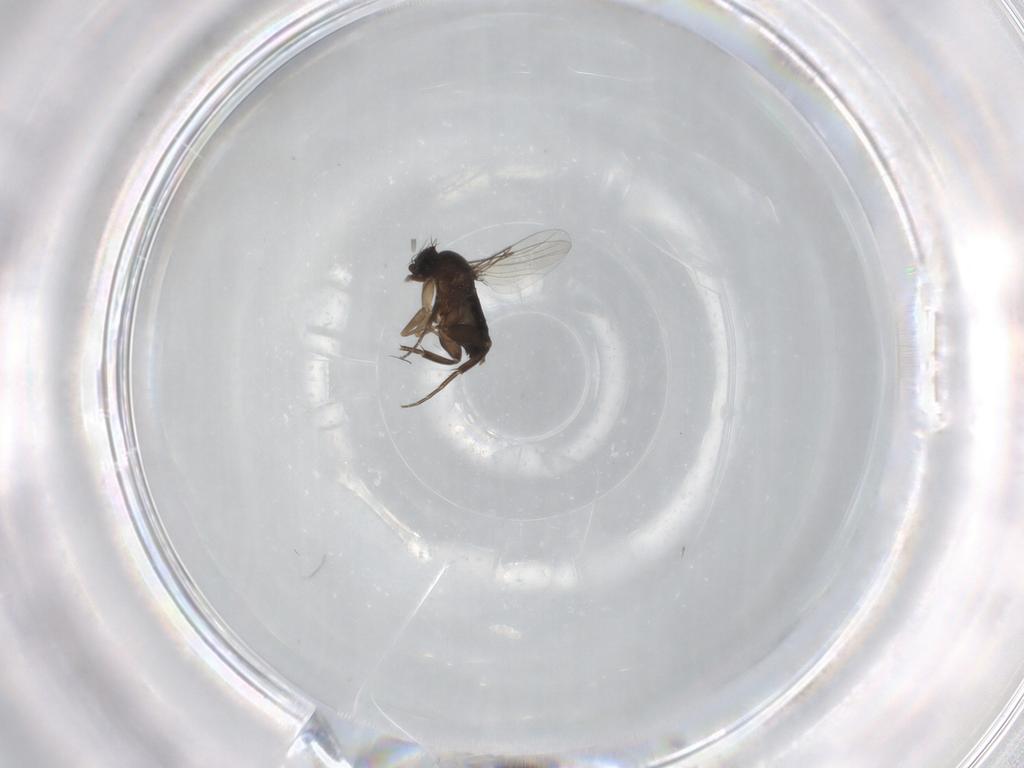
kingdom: Animalia
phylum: Arthropoda
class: Insecta
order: Diptera
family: Phoridae
